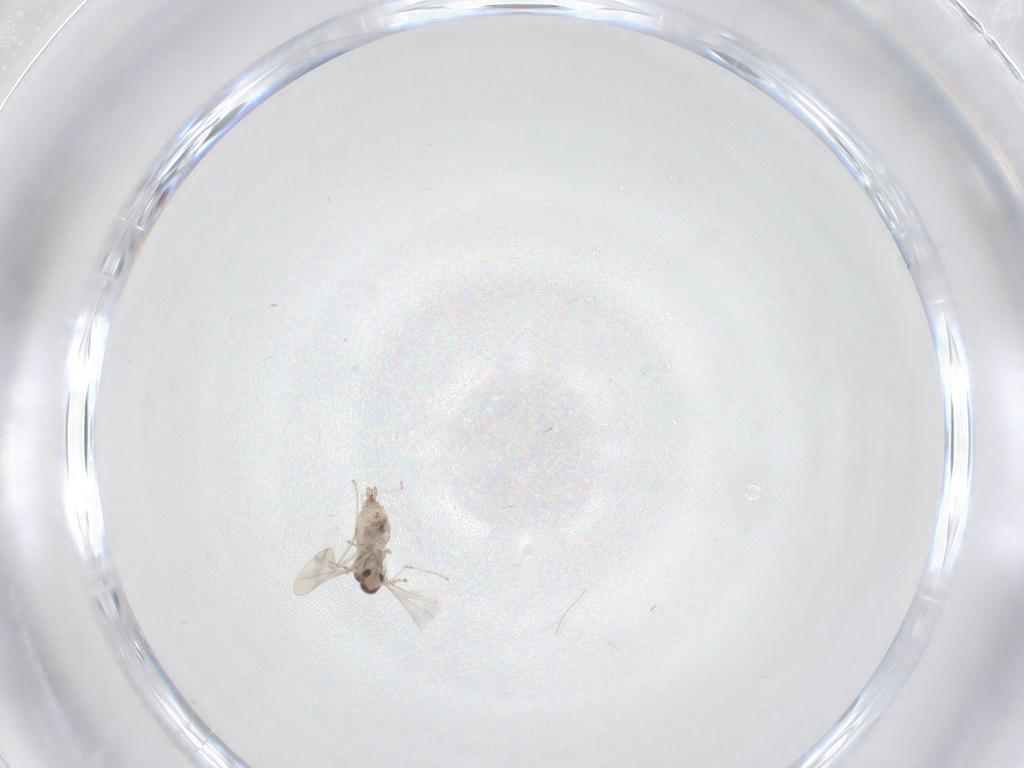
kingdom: Animalia
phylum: Arthropoda
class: Insecta
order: Diptera
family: Cecidomyiidae
